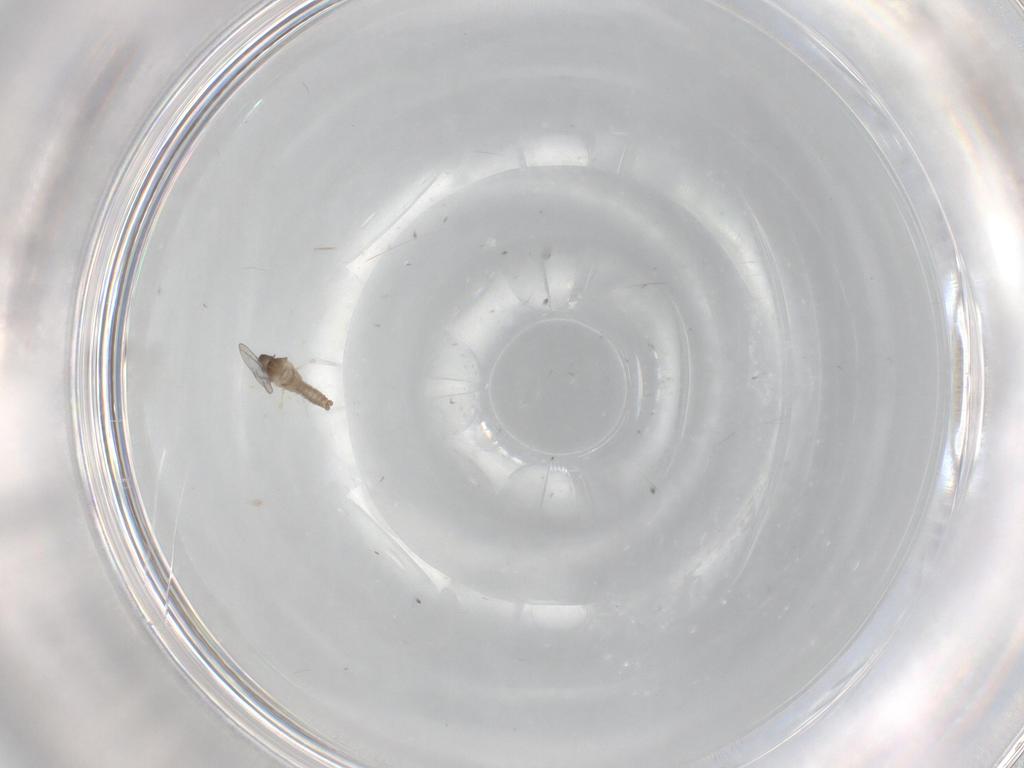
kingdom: Animalia
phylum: Arthropoda
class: Insecta
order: Diptera
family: Cecidomyiidae
